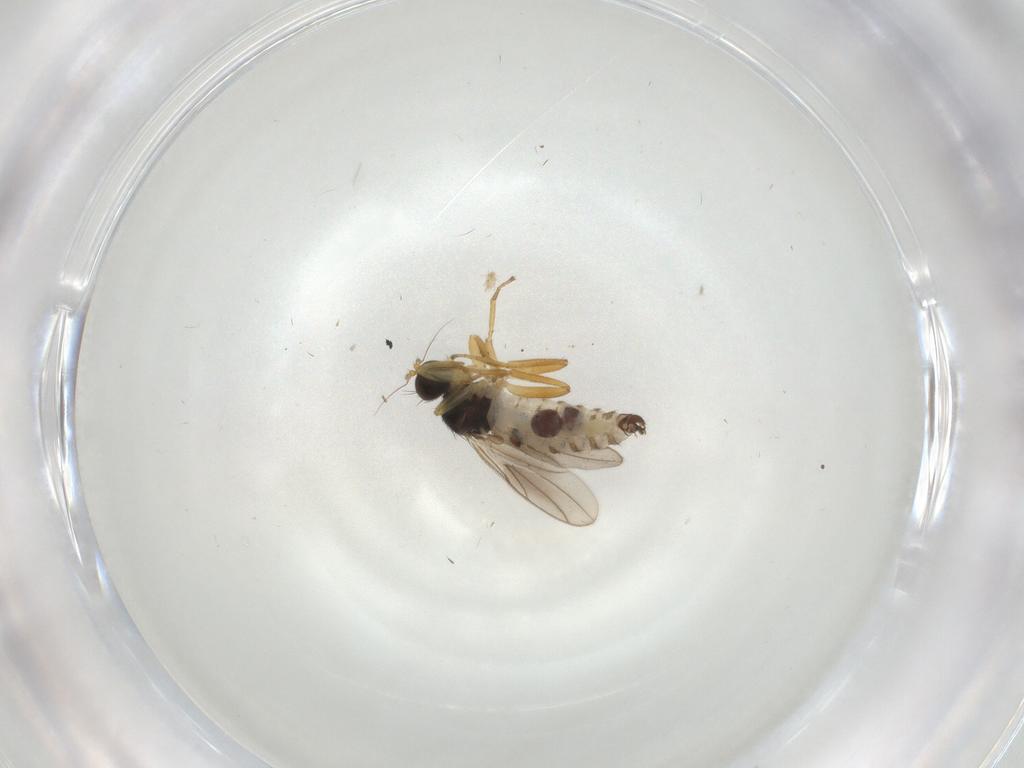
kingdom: Animalia
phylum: Arthropoda
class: Insecta
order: Diptera
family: Hybotidae
